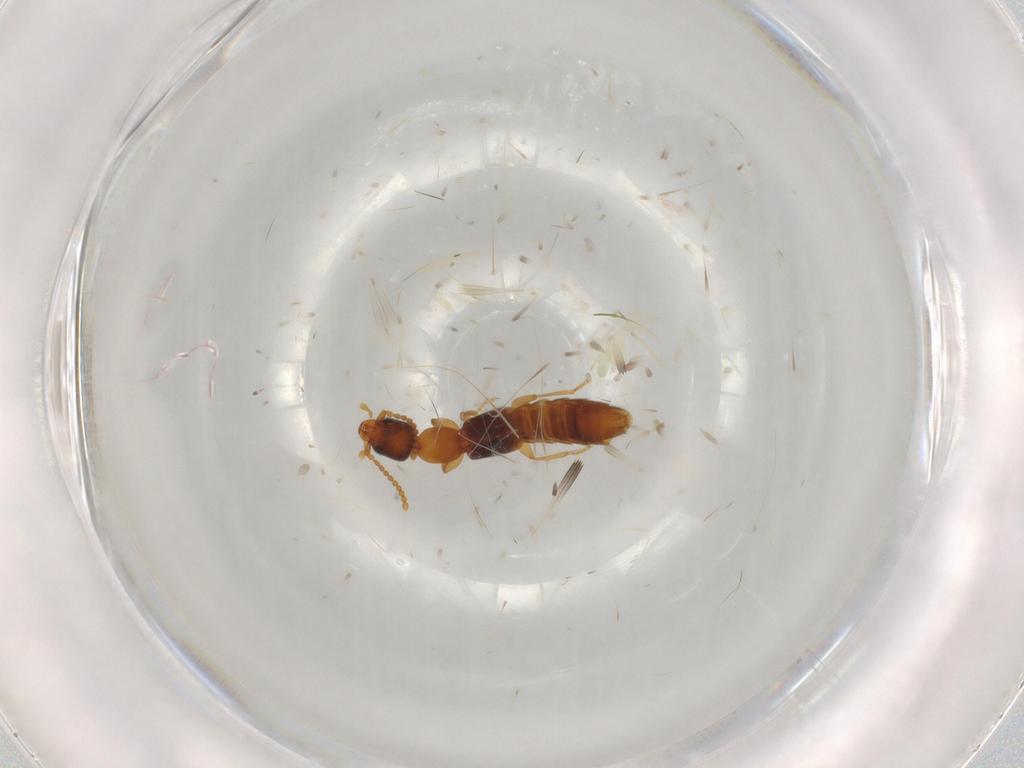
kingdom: Animalia
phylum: Arthropoda
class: Insecta
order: Coleoptera
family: Staphylinidae
